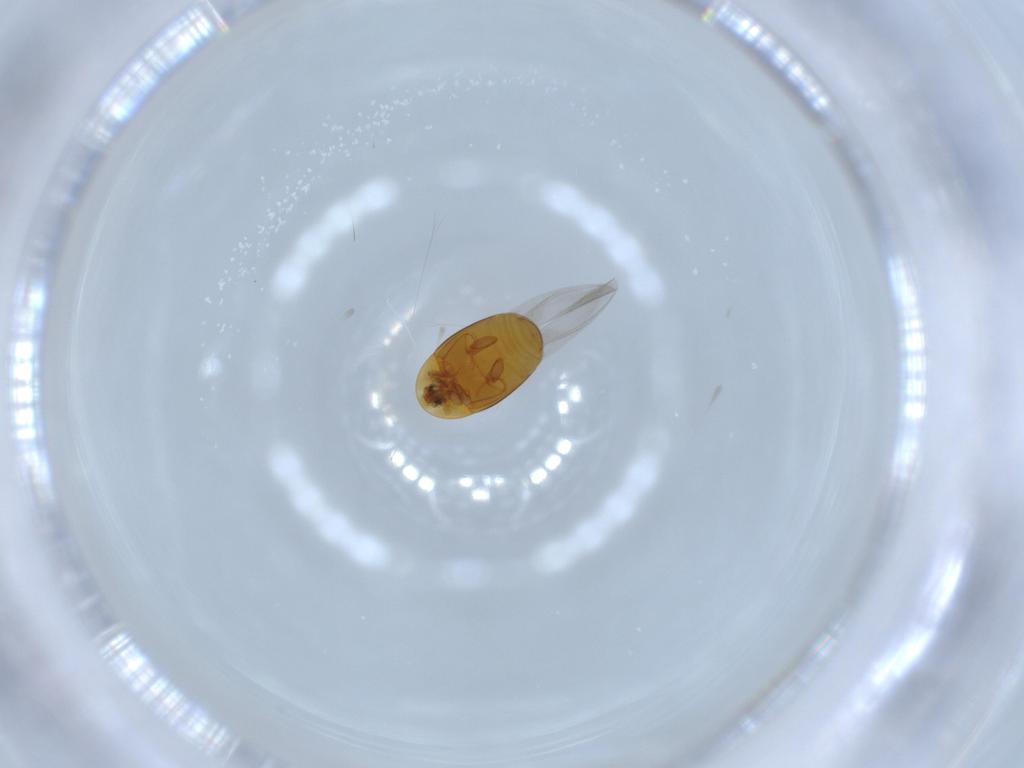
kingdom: Animalia
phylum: Arthropoda
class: Insecta
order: Coleoptera
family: Corylophidae
